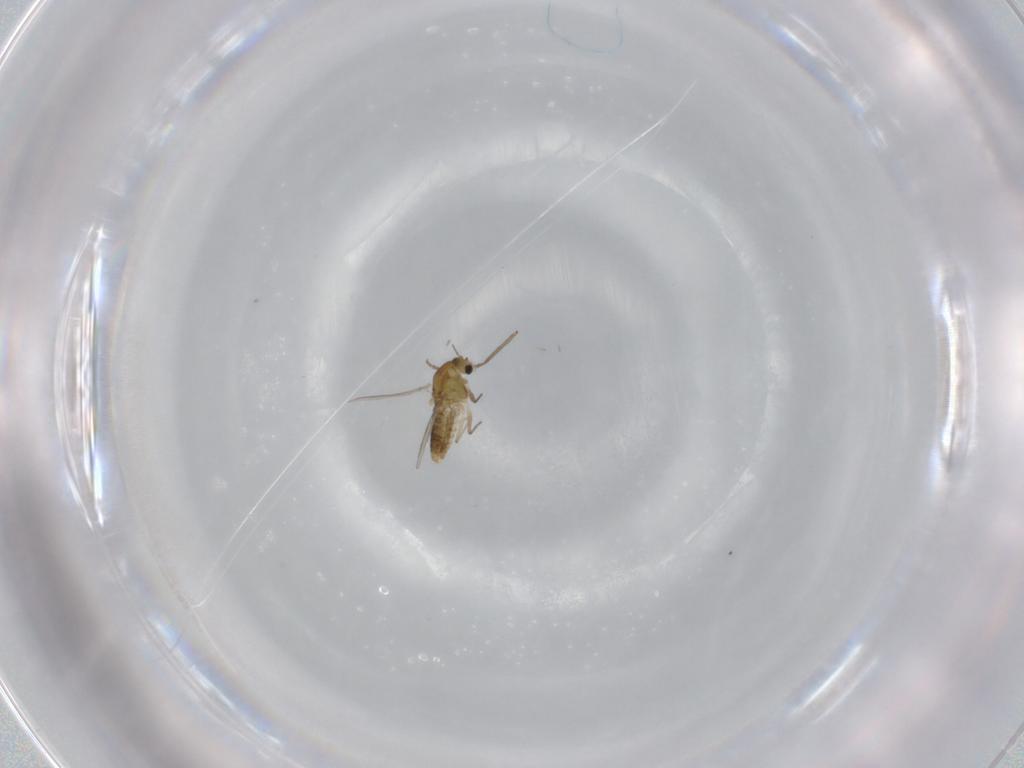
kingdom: Animalia
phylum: Arthropoda
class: Insecta
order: Diptera
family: Chironomidae
